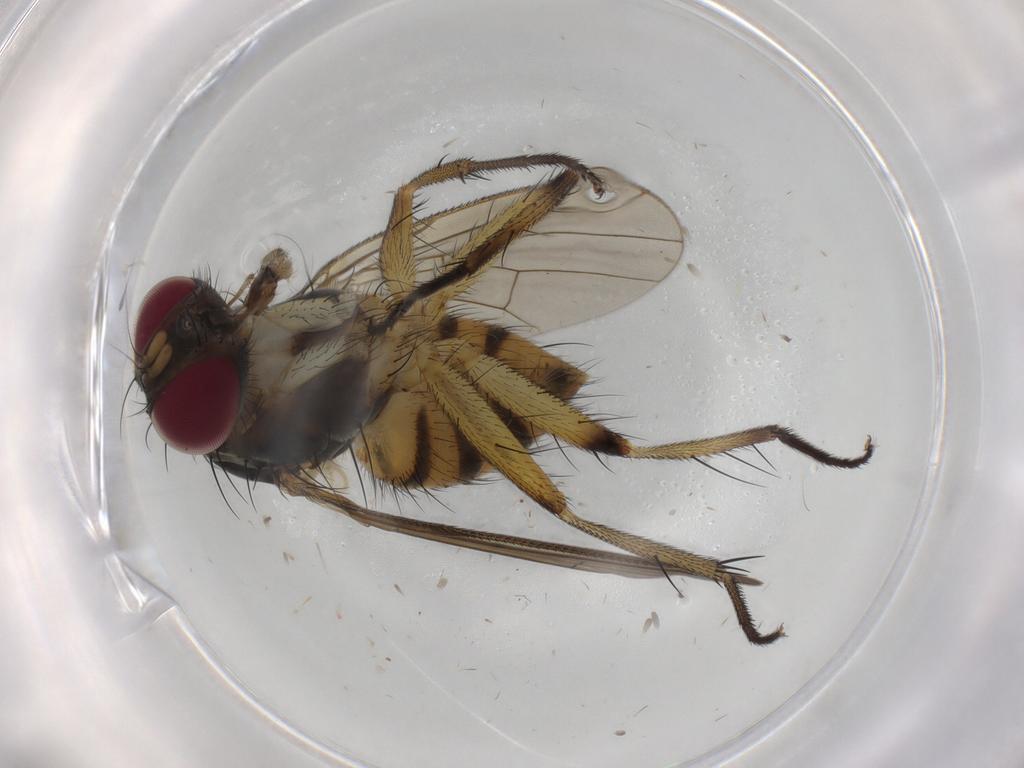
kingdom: Animalia
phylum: Arthropoda
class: Insecta
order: Diptera
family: Muscidae
